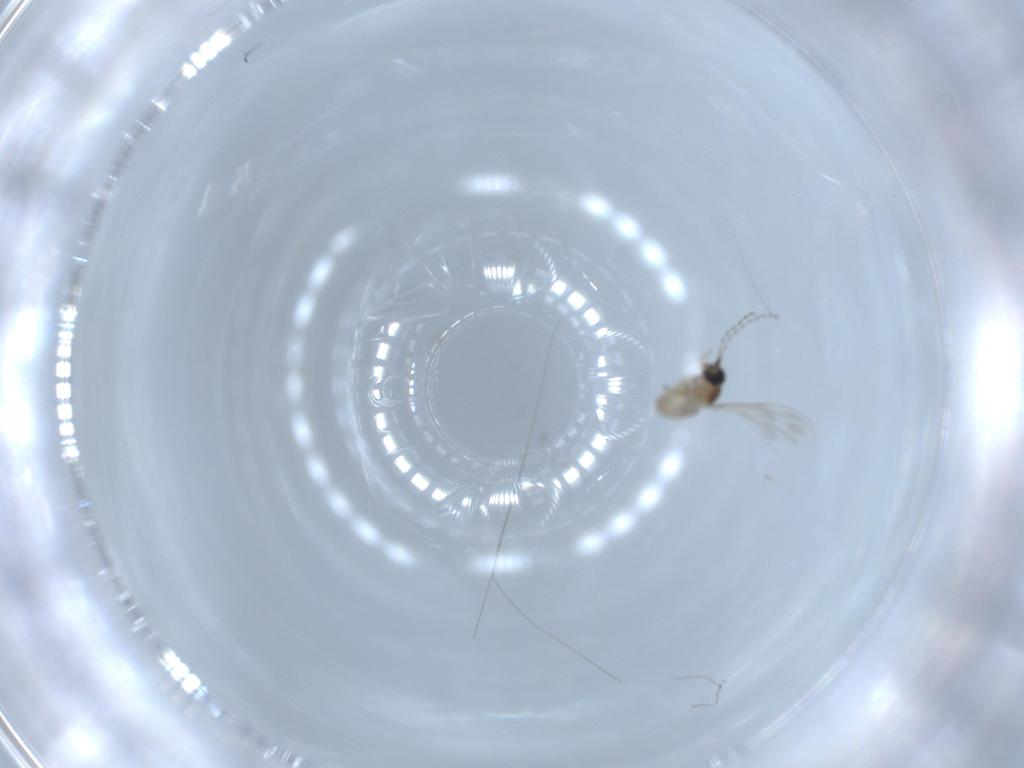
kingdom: Animalia
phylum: Arthropoda
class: Insecta
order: Diptera
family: Cecidomyiidae
